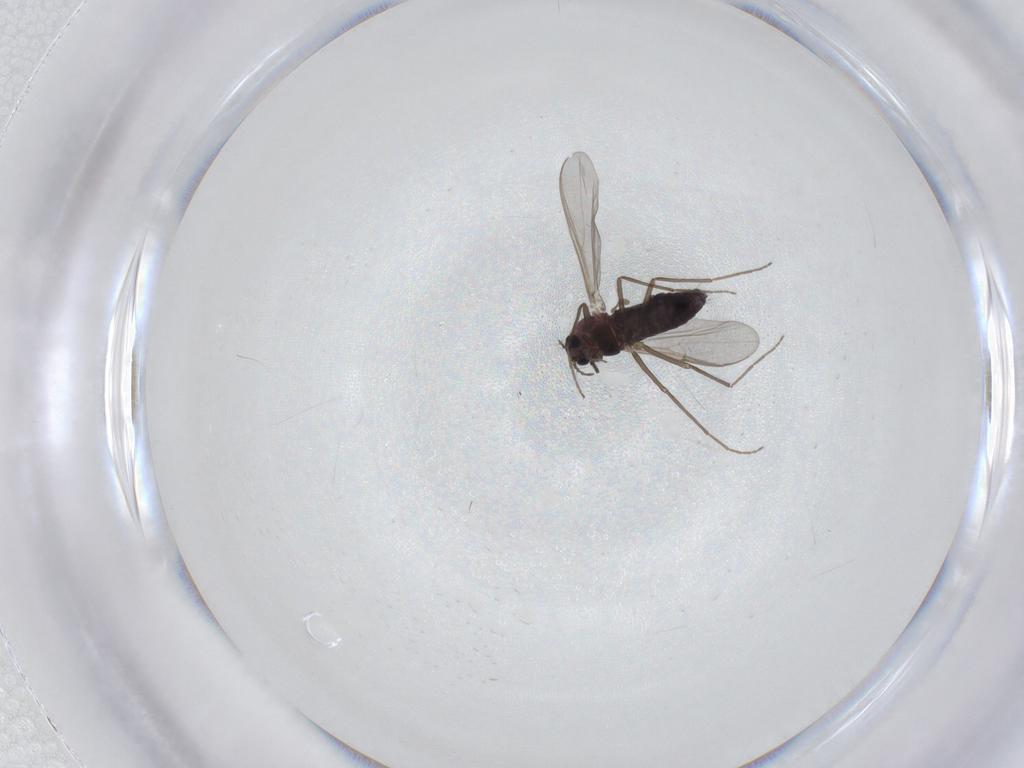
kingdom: Animalia
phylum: Arthropoda
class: Insecta
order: Diptera
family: Chironomidae
